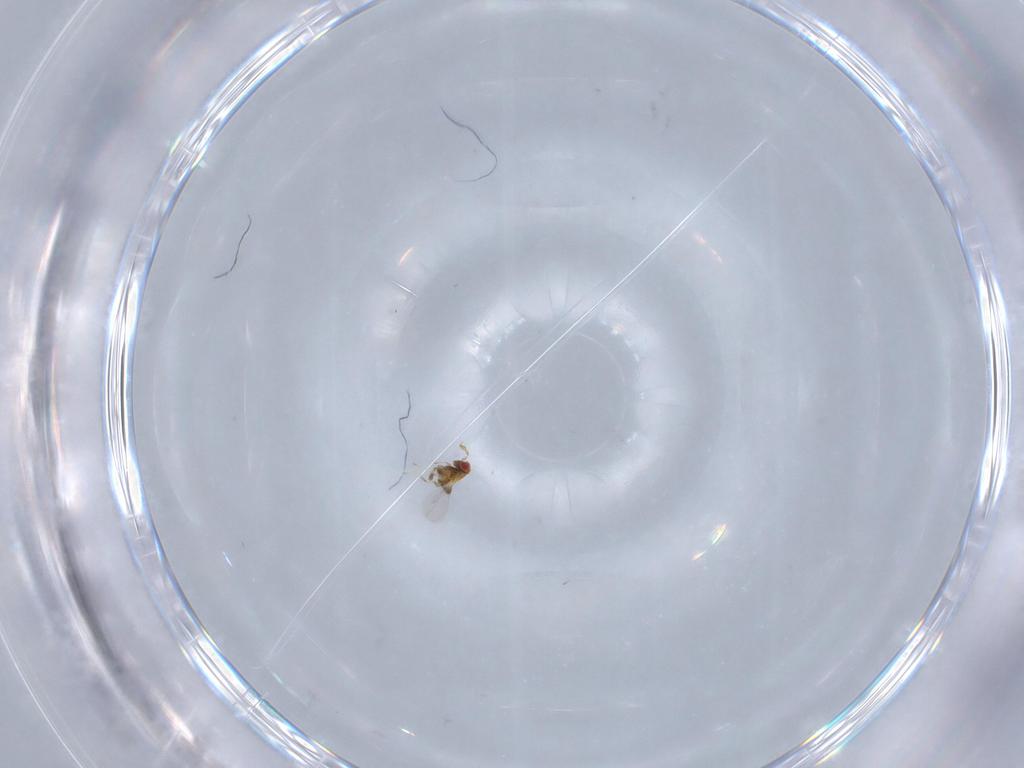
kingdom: Animalia
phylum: Arthropoda
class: Insecta
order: Hymenoptera
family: Trichogrammatidae
